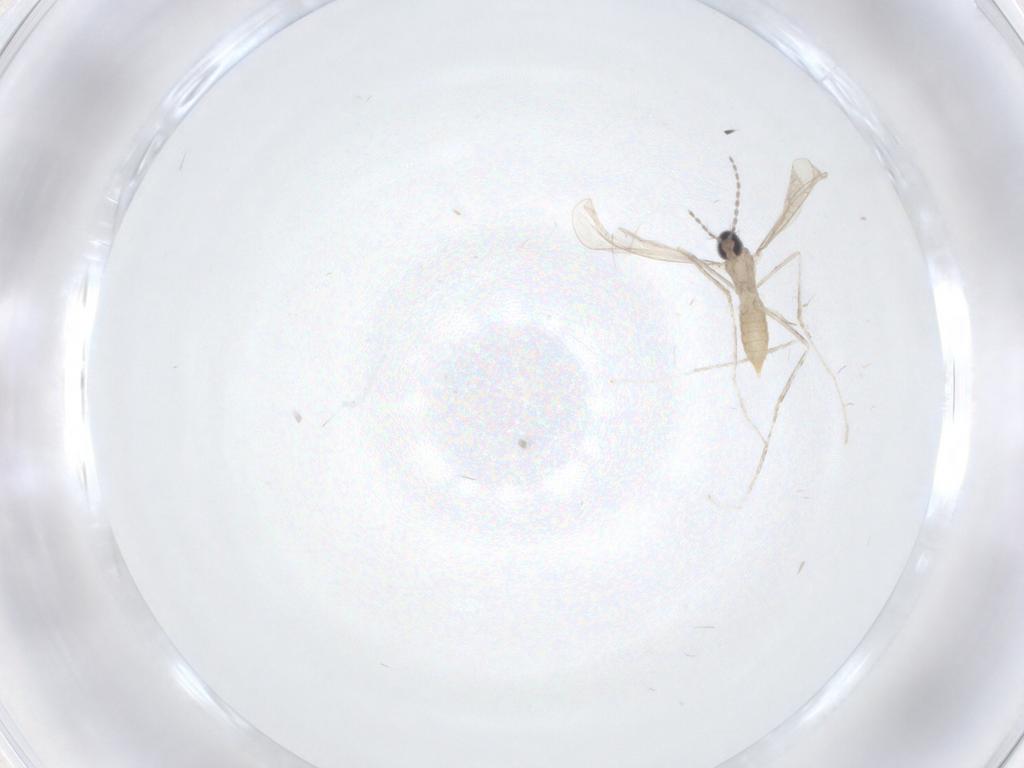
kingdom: Animalia
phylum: Arthropoda
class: Insecta
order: Diptera
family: Cecidomyiidae
